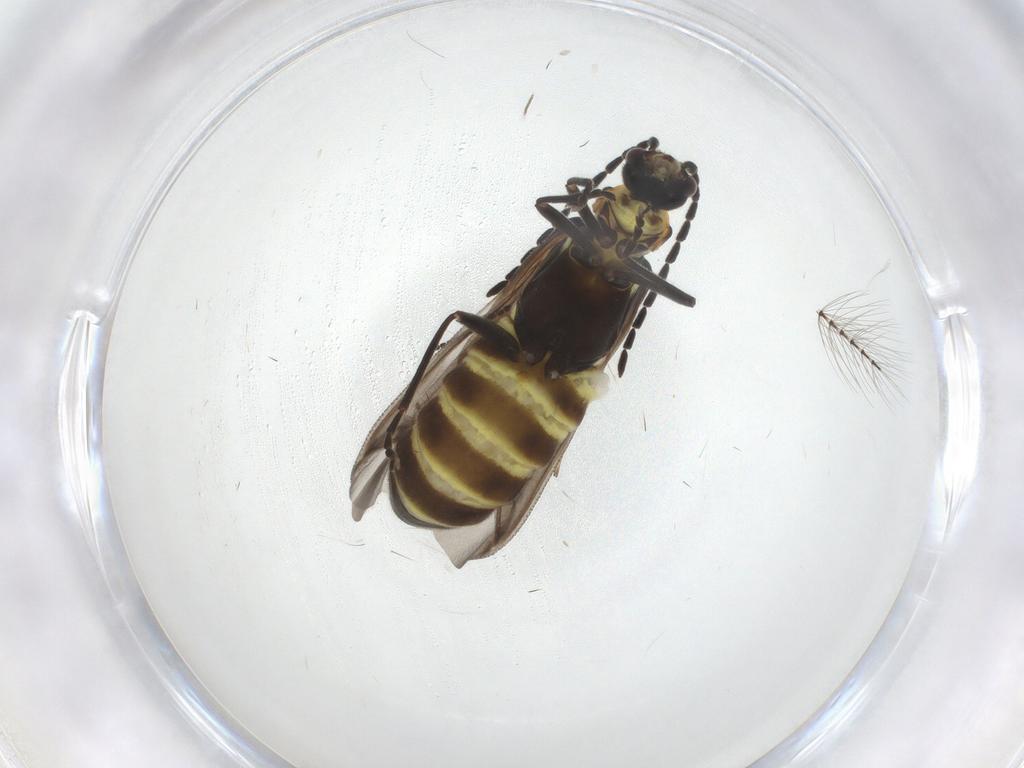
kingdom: Animalia
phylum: Arthropoda
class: Insecta
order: Coleoptera
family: Cantharidae
